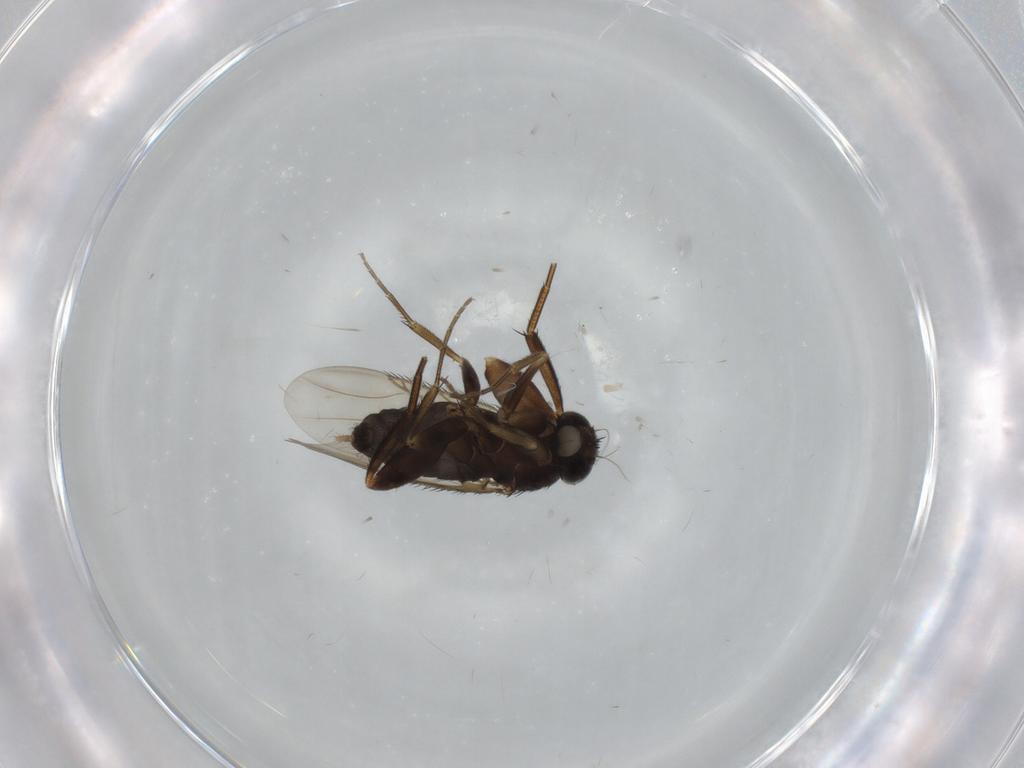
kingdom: Animalia
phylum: Arthropoda
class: Insecta
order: Diptera
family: Phoridae
